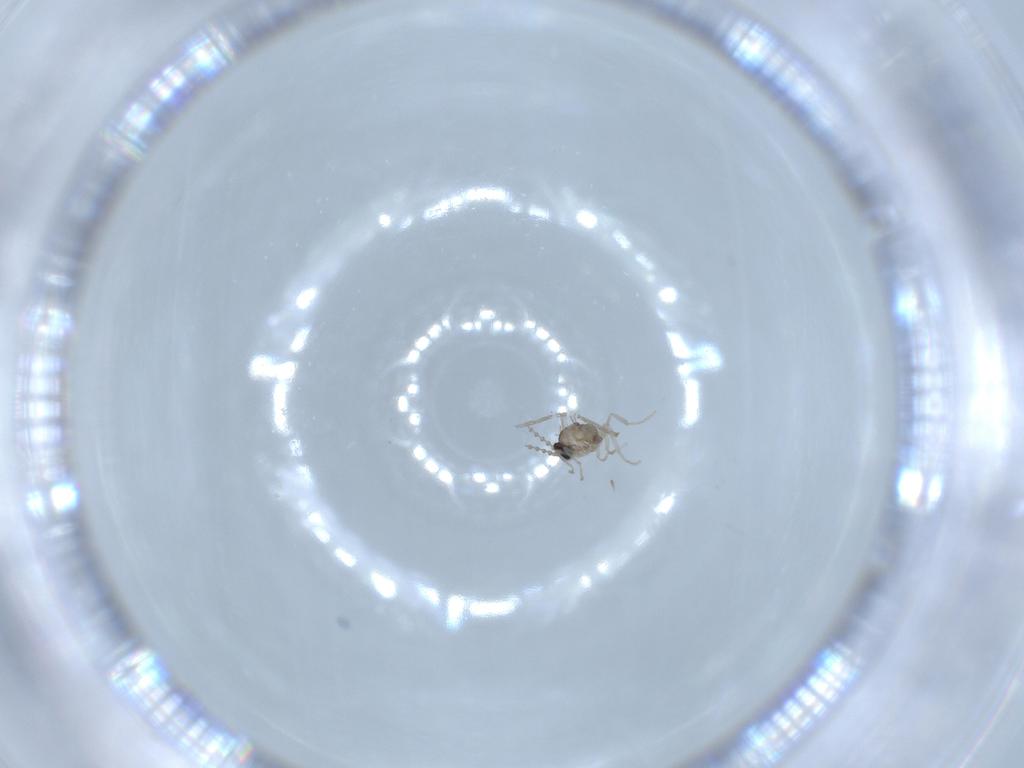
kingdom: Animalia
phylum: Arthropoda
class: Insecta
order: Diptera
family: Cecidomyiidae
